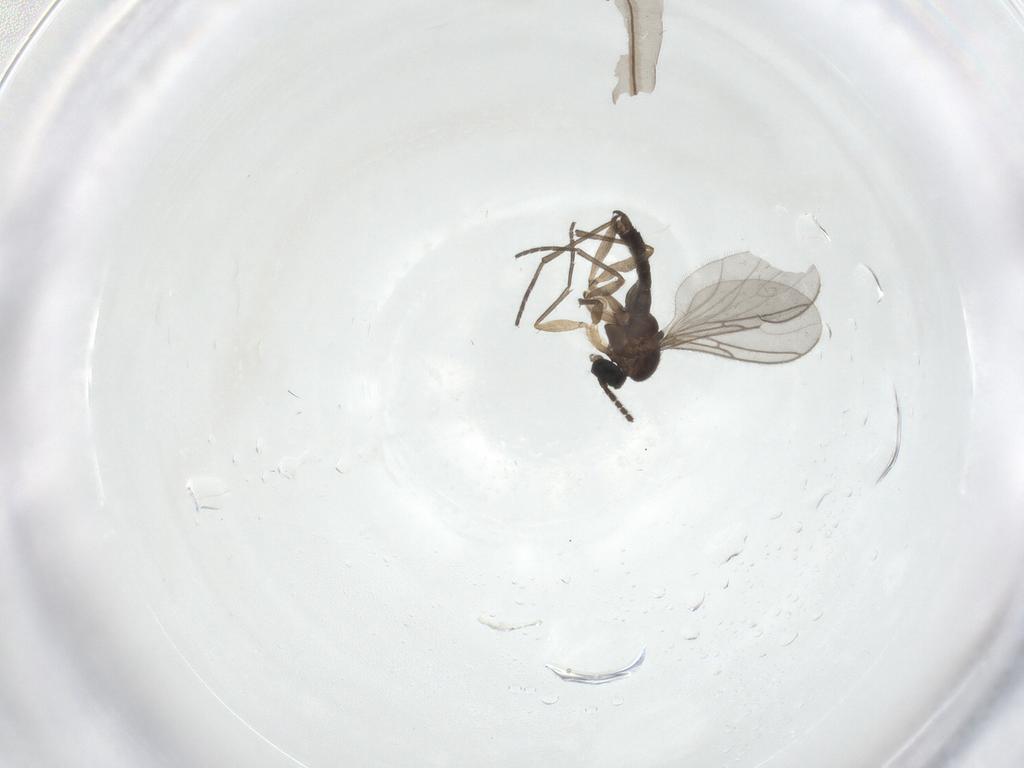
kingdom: Animalia
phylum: Arthropoda
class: Insecta
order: Diptera
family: Sciaridae
